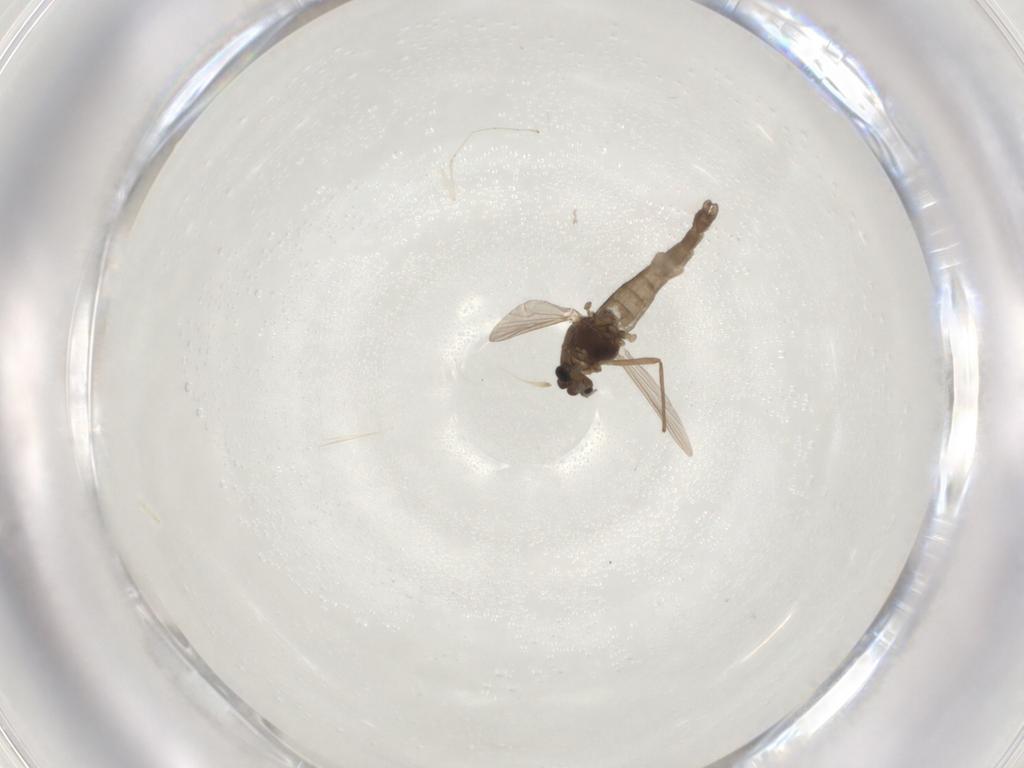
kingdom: Animalia
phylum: Arthropoda
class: Insecta
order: Diptera
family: Chironomidae
